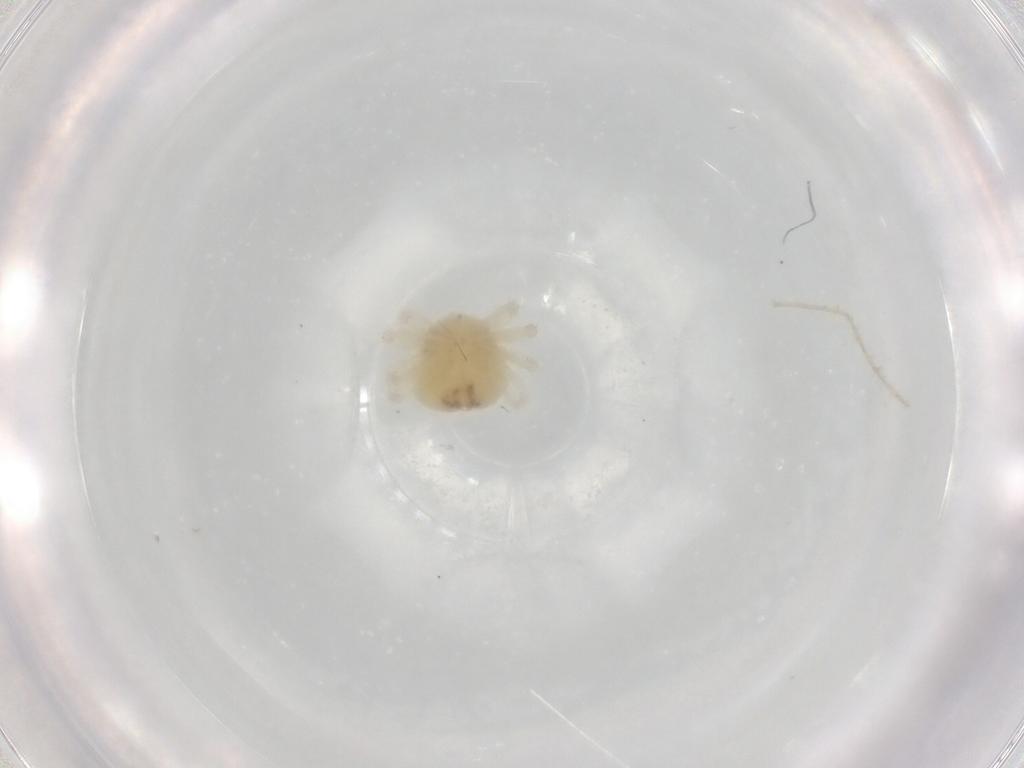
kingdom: Animalia
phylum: Arthropoda
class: Arachnida
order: Trombidiformes
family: Anystidae
